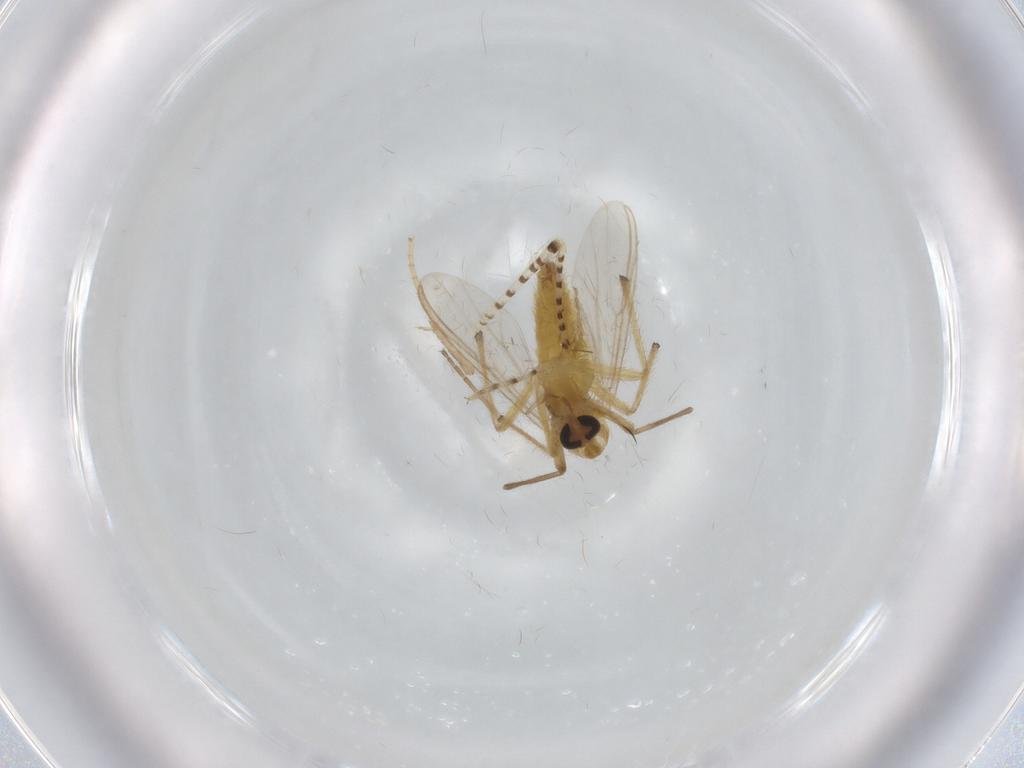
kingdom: Animalia
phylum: Arthropoda
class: Insecta
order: Diptera
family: Chironomidae
